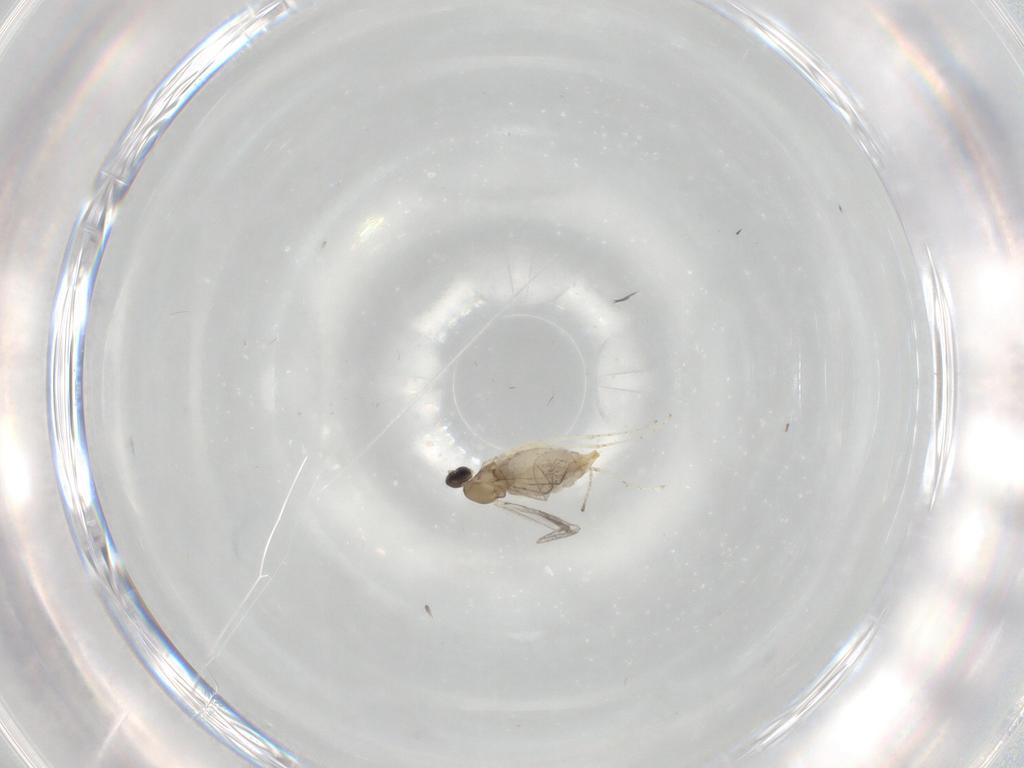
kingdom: Animalia
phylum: Arthropoda
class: Insecta
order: Diptera
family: Cecidomyiidae
